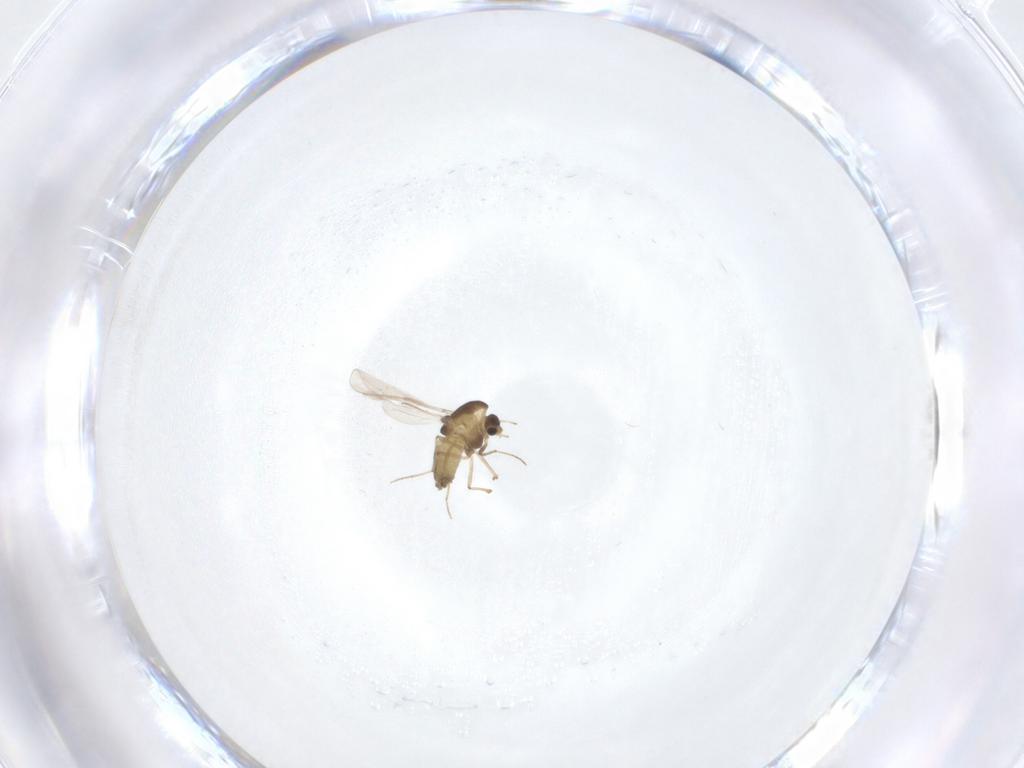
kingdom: Animalia
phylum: Arthropoda
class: Insecta
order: Diptera
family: Chironomidae
